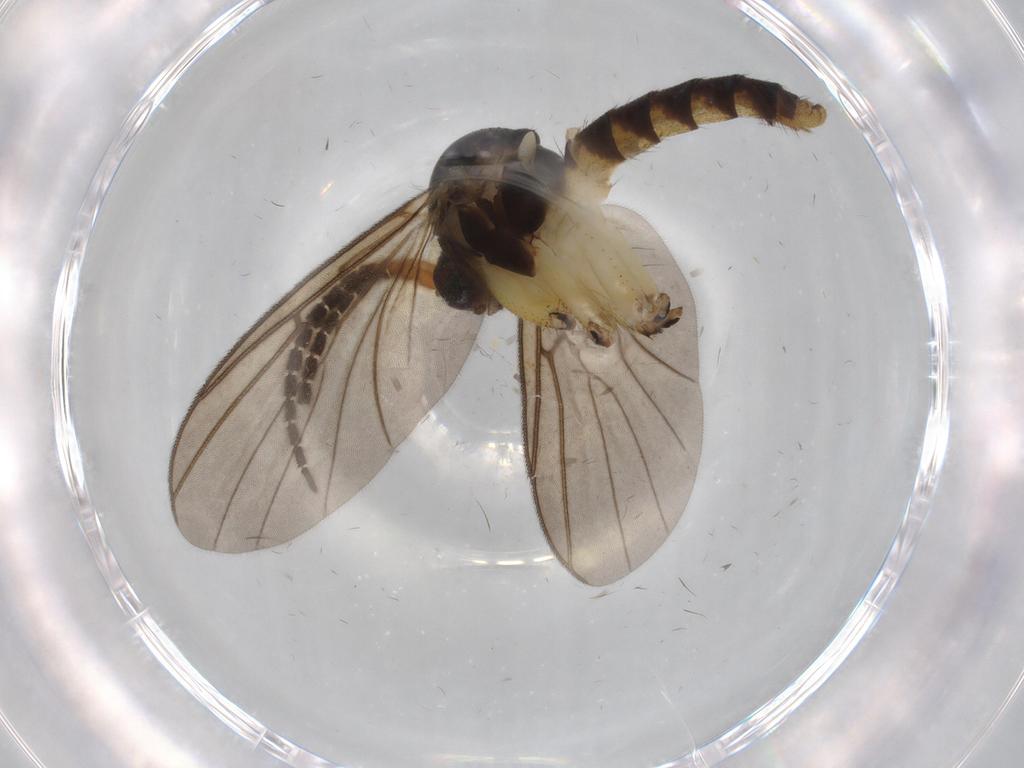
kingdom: Animalia
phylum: Arthropoda
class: Insecta
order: Diptera
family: Phoridae
